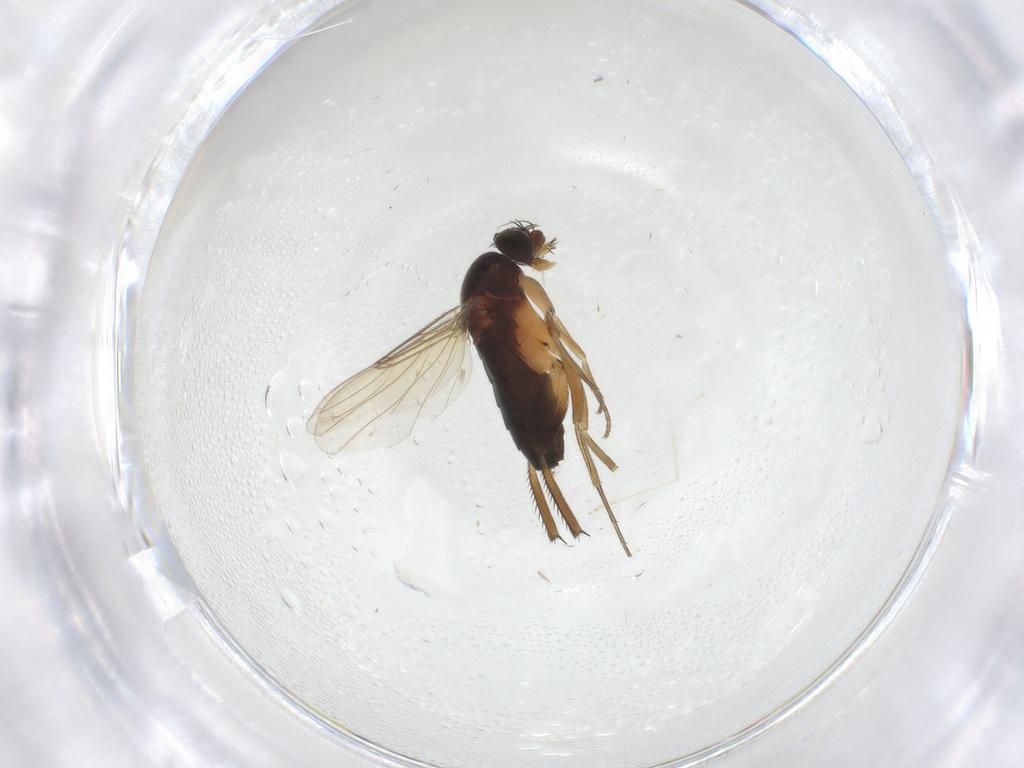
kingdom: Animalia
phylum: Arthropoda
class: Insecta
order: Diptera
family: Phoridae
